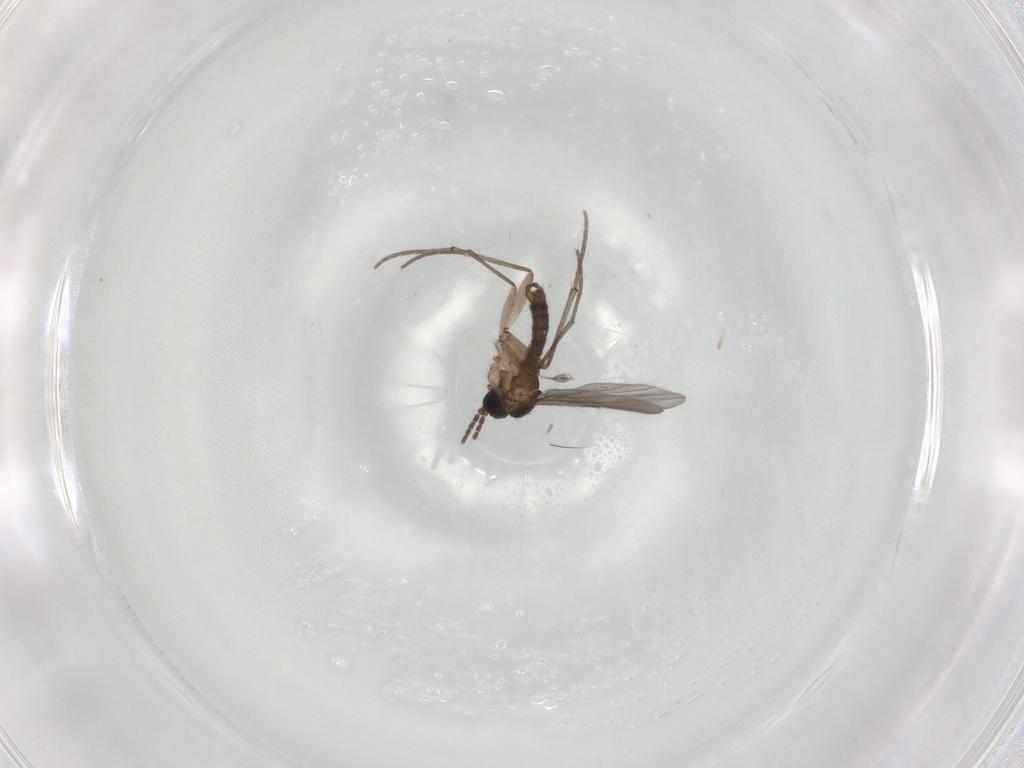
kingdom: Animalia
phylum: Arthropoda
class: Insecta
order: Diptera
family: Sciaridae
